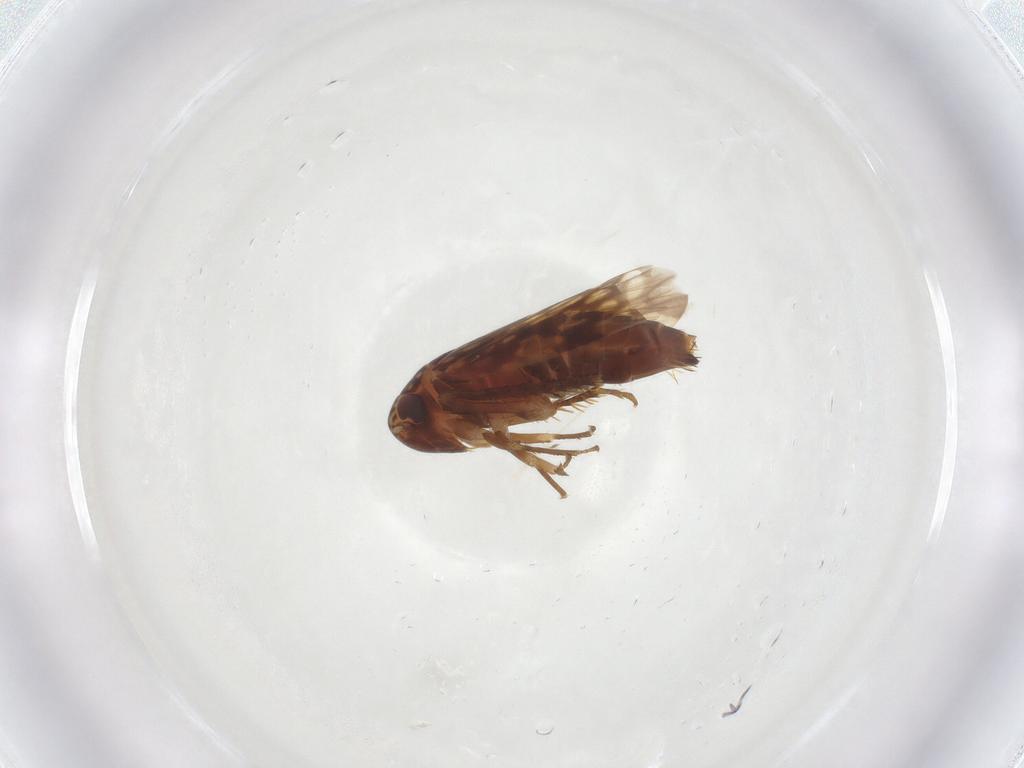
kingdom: Animalia
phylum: Arthropoda
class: Insecta
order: Hemiptera
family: Cicadellidae
